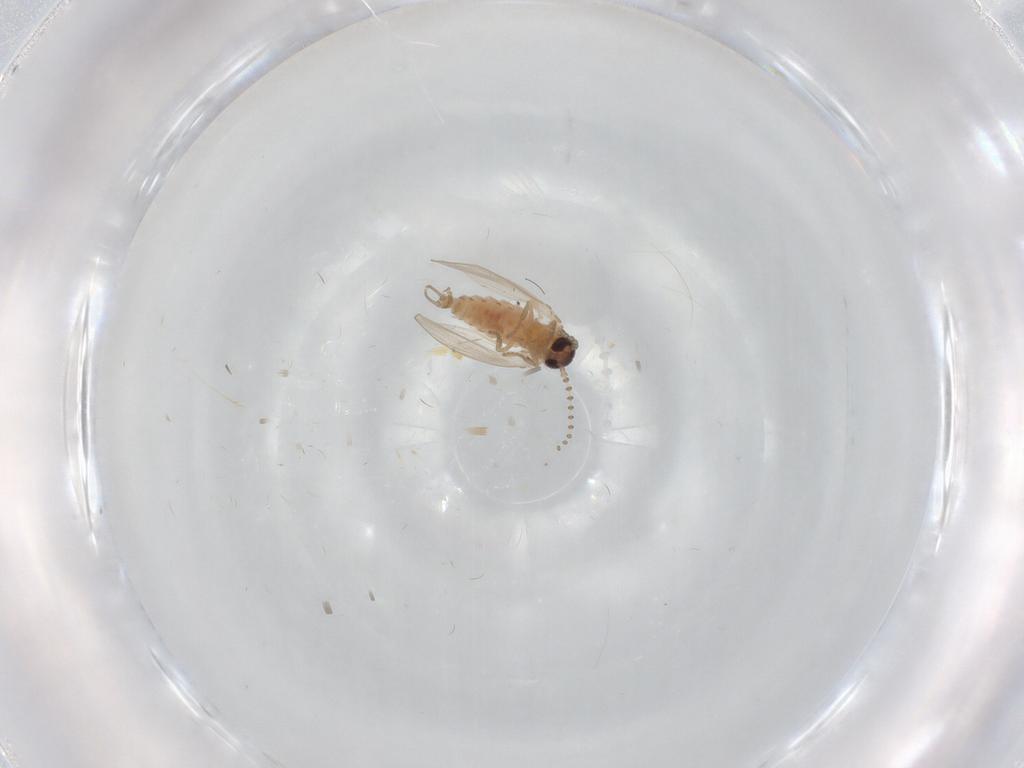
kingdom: Animalia
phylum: Arthropoda
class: Insecta
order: Diptera
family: Psychodidae
